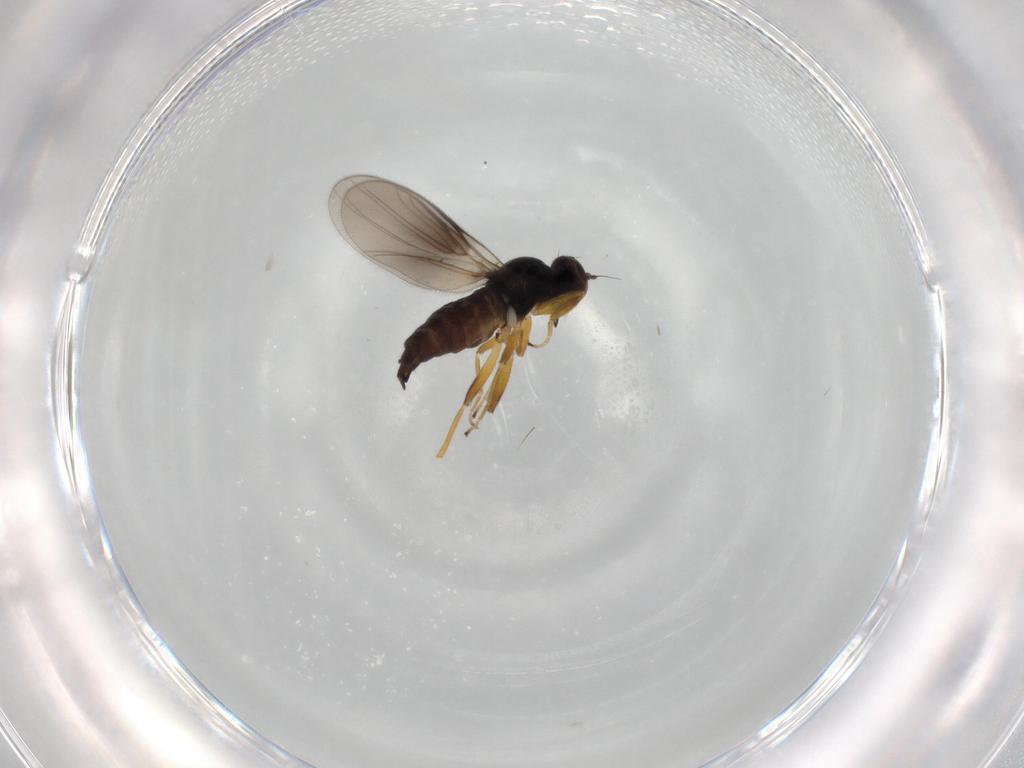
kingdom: Animalia
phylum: Arthropoda
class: Insecta
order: Diptera
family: Hybotidae
